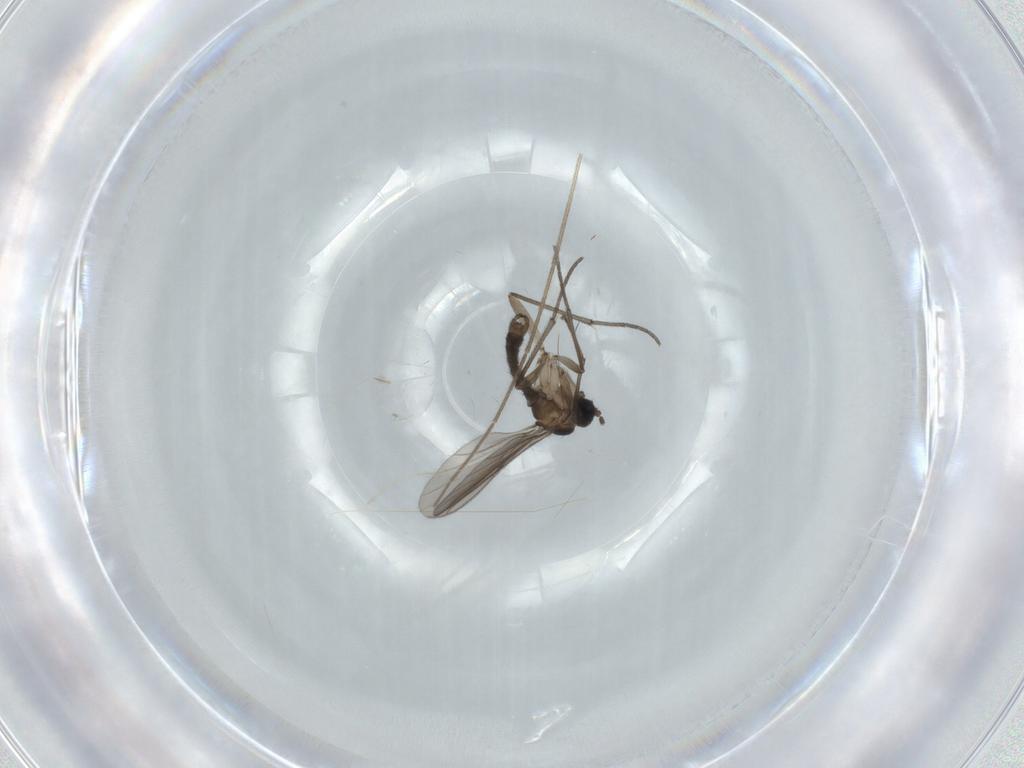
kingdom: Animalia
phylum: Arthropoda
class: Insecta
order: Diptera
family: Sciaridae
